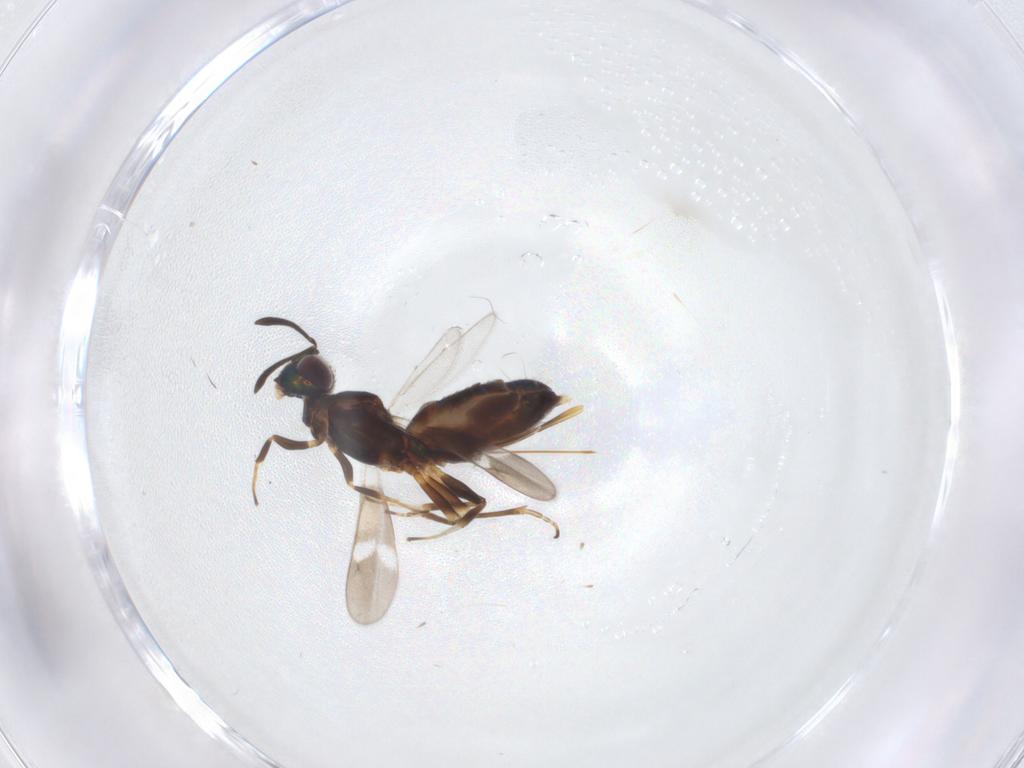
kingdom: Animalia
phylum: Arthropoda
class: Insecta
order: Hymenoptera
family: Eupelmidae
